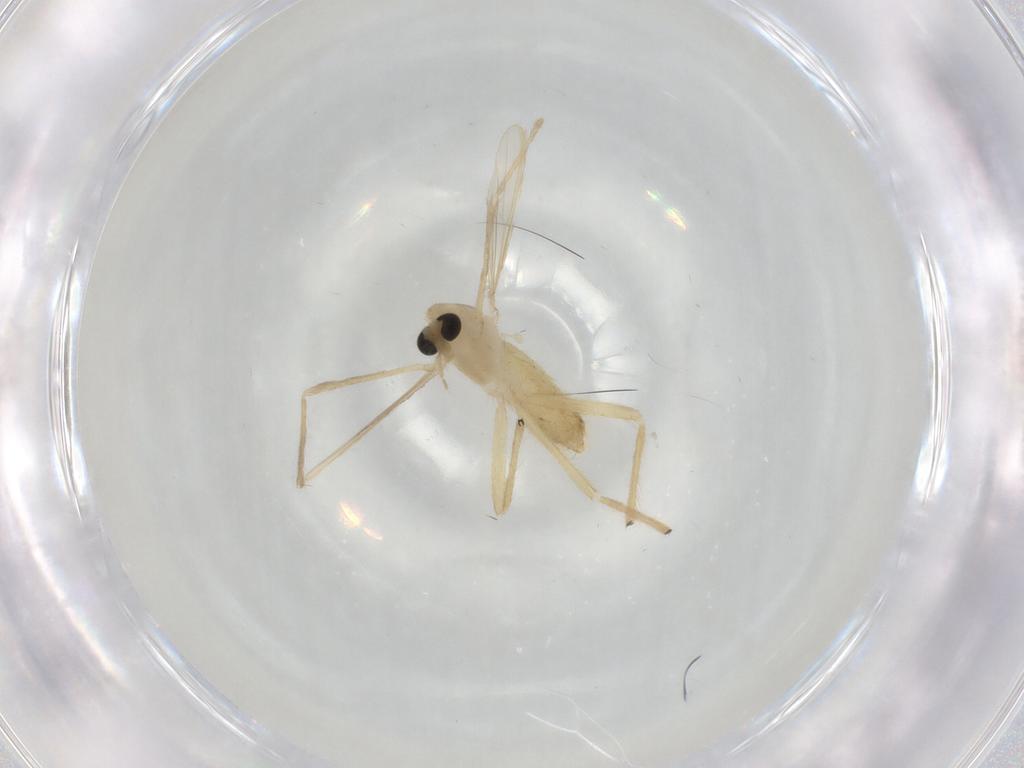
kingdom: Animalia
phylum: Arthropoda
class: Insecta
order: Diptera
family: Chironomidae
